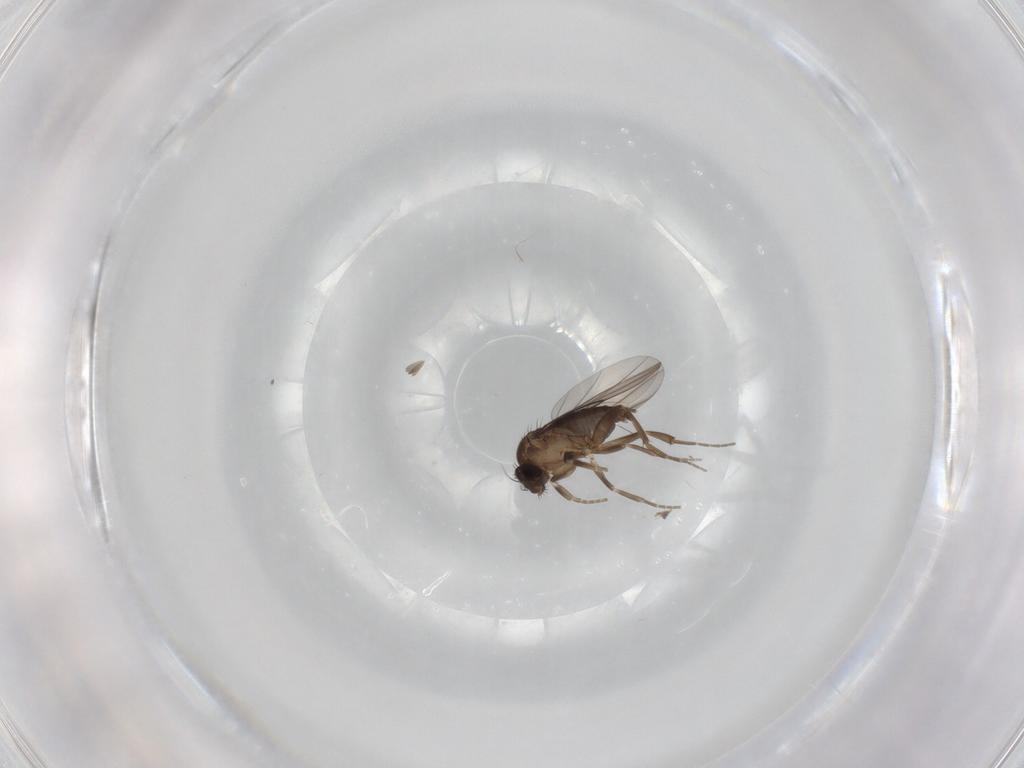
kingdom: Animalia
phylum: Arthropoda
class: Insecta
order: Diptera
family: Phoridae
